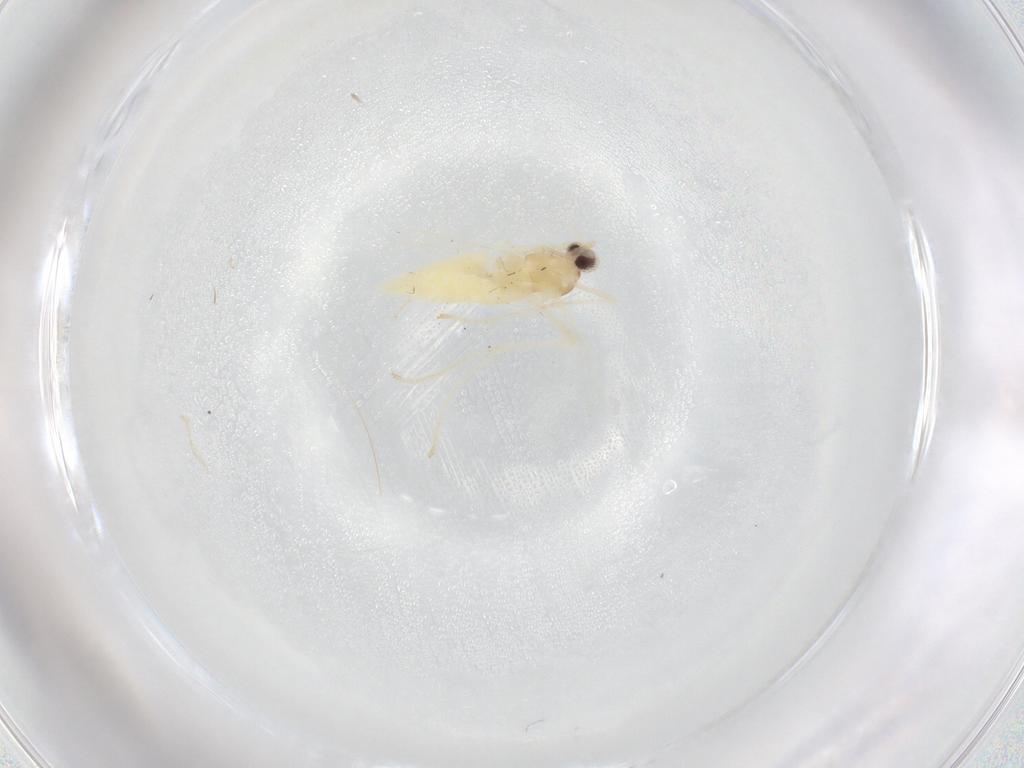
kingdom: Animalia
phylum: Arthropoda
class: Insecta
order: Diptera
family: Cecidomyiidae
